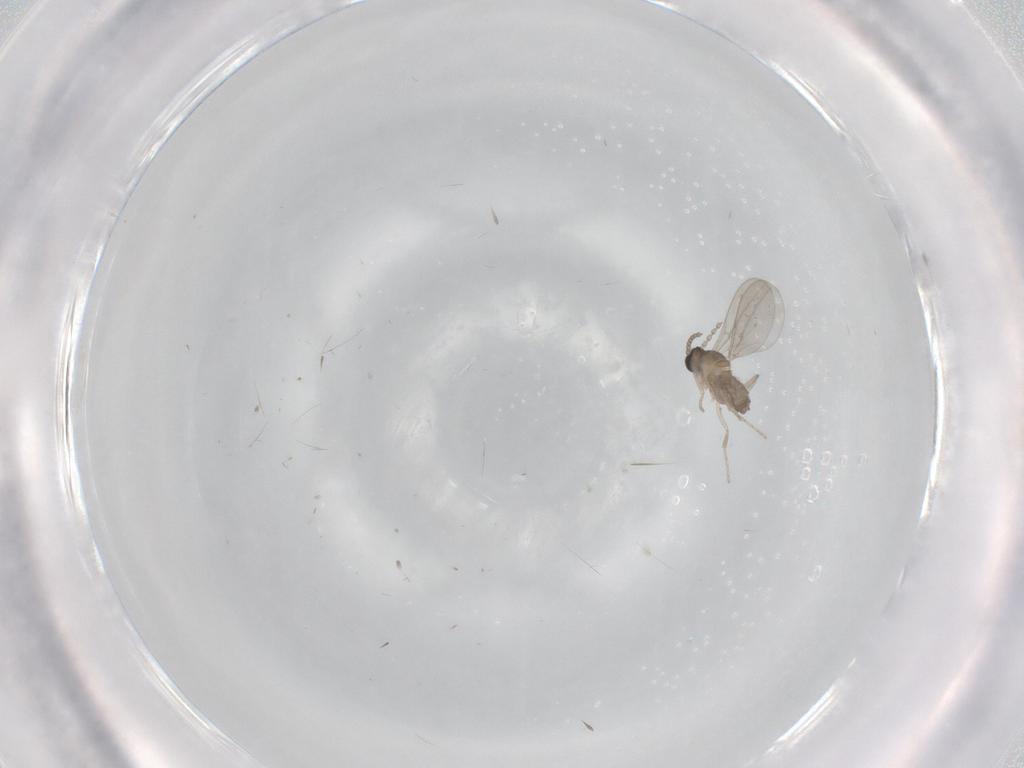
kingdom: Animalia
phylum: Arthropoda
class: Insecta
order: Diptera
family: Cecidomyiidae
